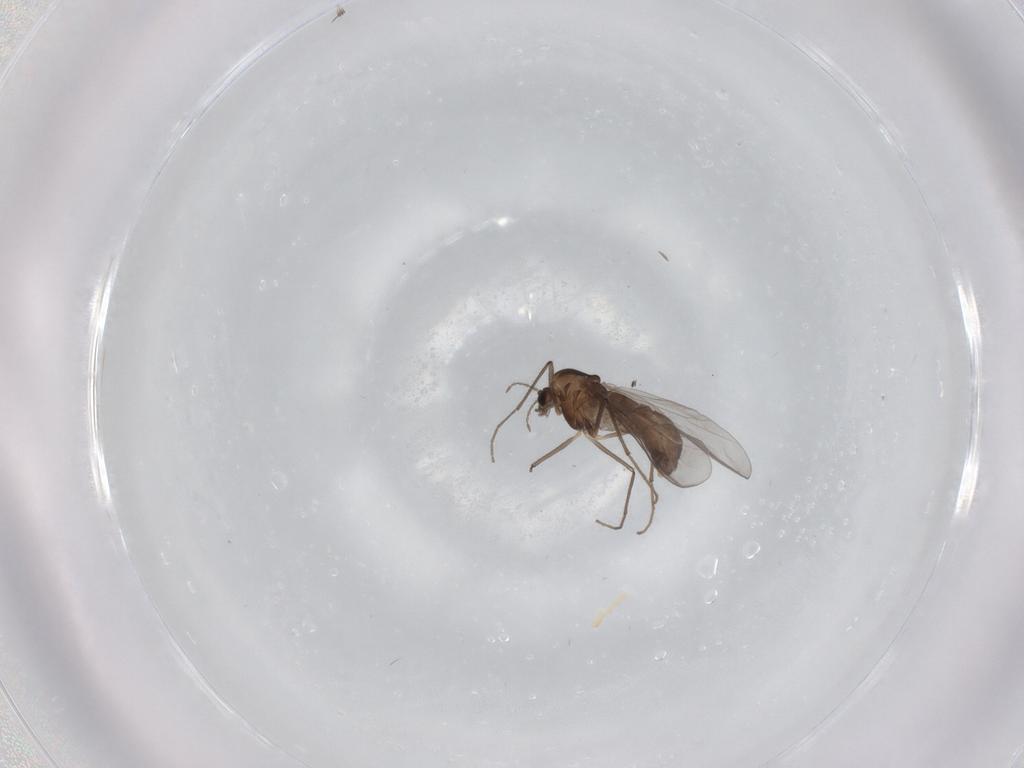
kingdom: Animalia
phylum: Arthropoda
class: Insecta
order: Diptera
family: Chironomidae
